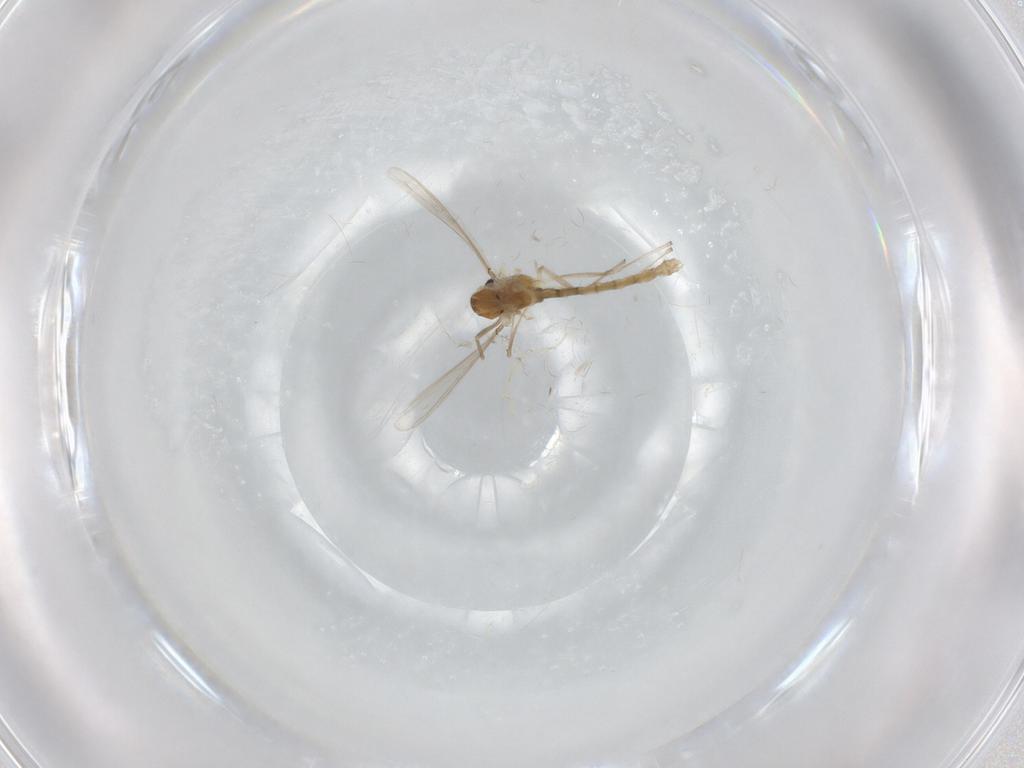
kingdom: Animalia
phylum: Arthropoda
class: Insecta
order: Diptera
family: Chironomidae
